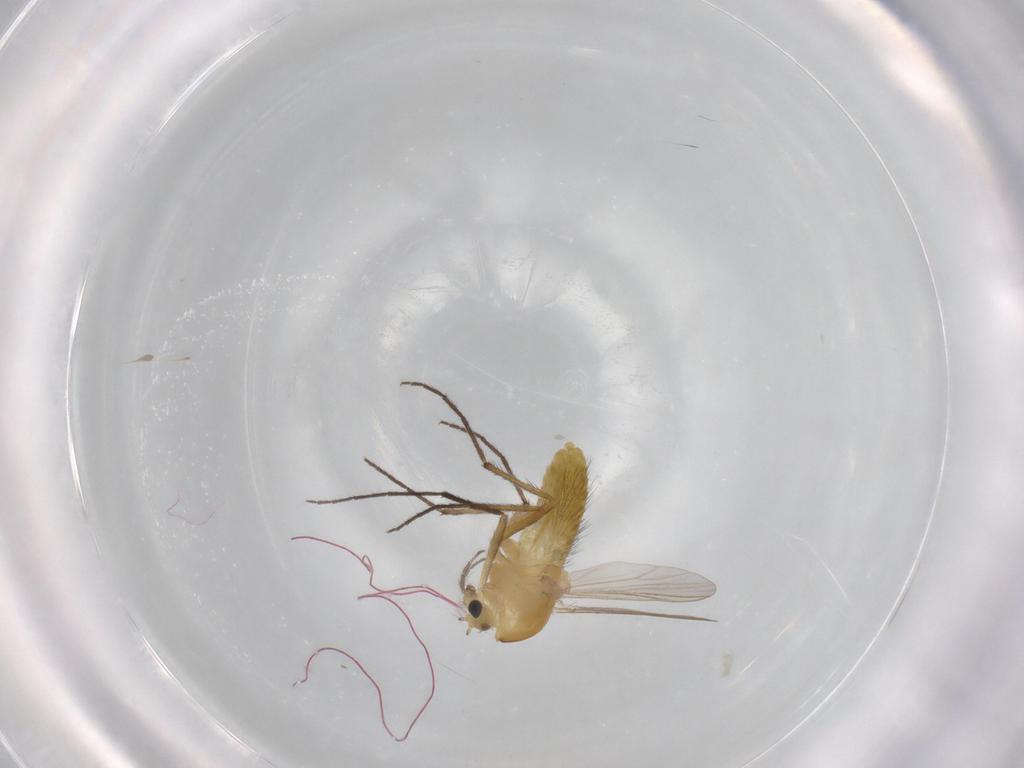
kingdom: Animalia
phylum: Arthropoda
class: Insecta
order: Diptera
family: Chironomidae
